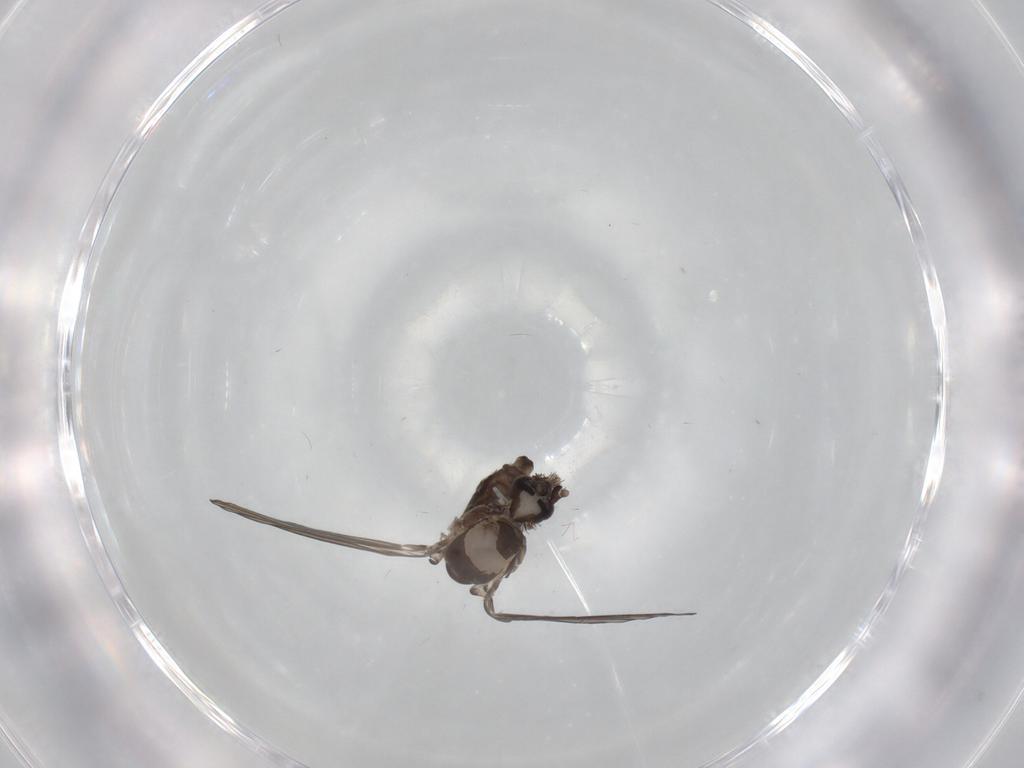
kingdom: Animalia
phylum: Arthropoda
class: Insecta
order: Diptera
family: Psychodidae
